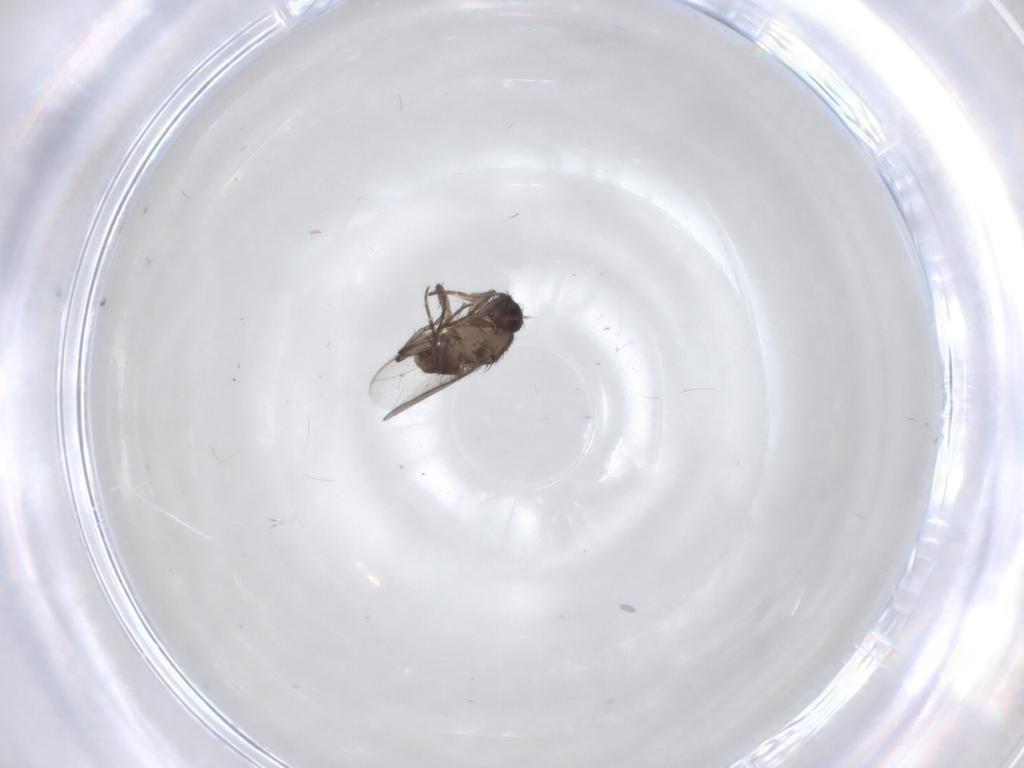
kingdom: Animalia
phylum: Arthropoda
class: Insecta
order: Diptera
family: Sphaeroceridae
